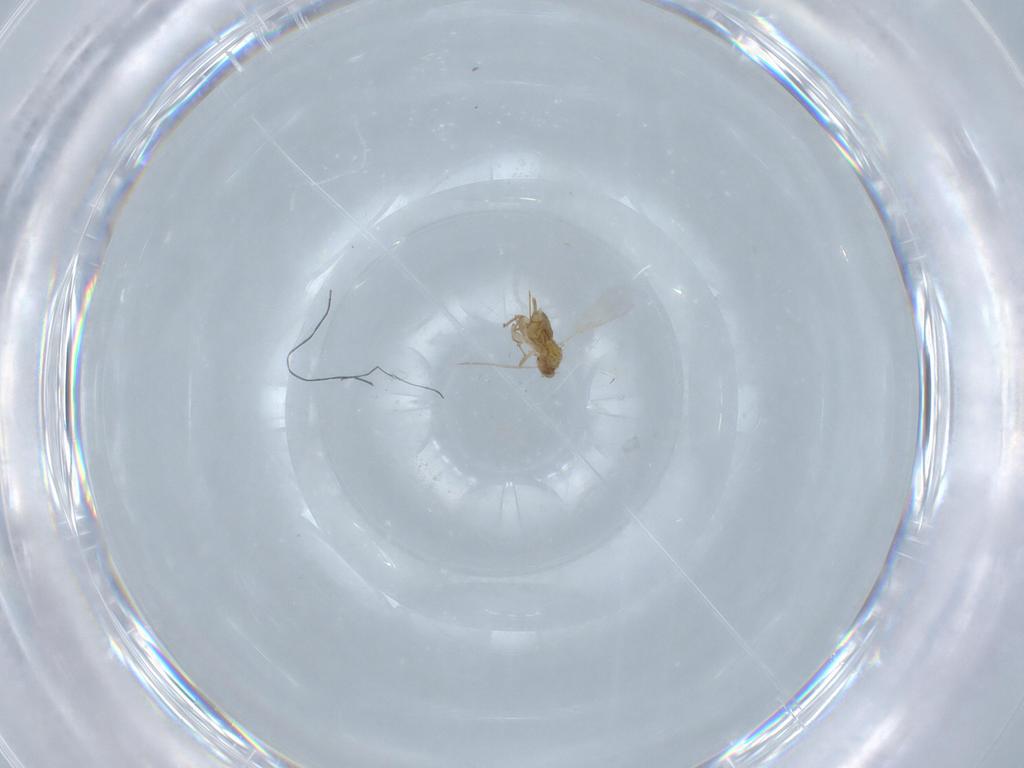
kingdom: Animalia
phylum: Arthropoda
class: Insecta
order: Hymenoptera
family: Aphelinidae
